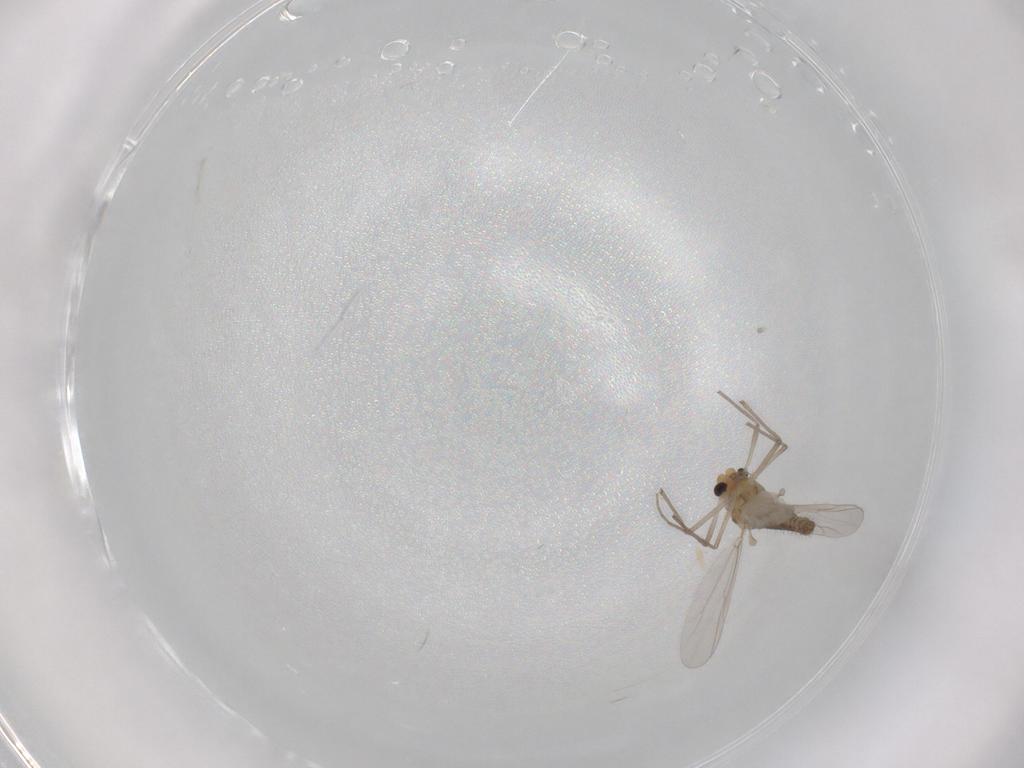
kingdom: Animalia
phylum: Arthropoda
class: Insecta
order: Diptera
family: Chironomidae
